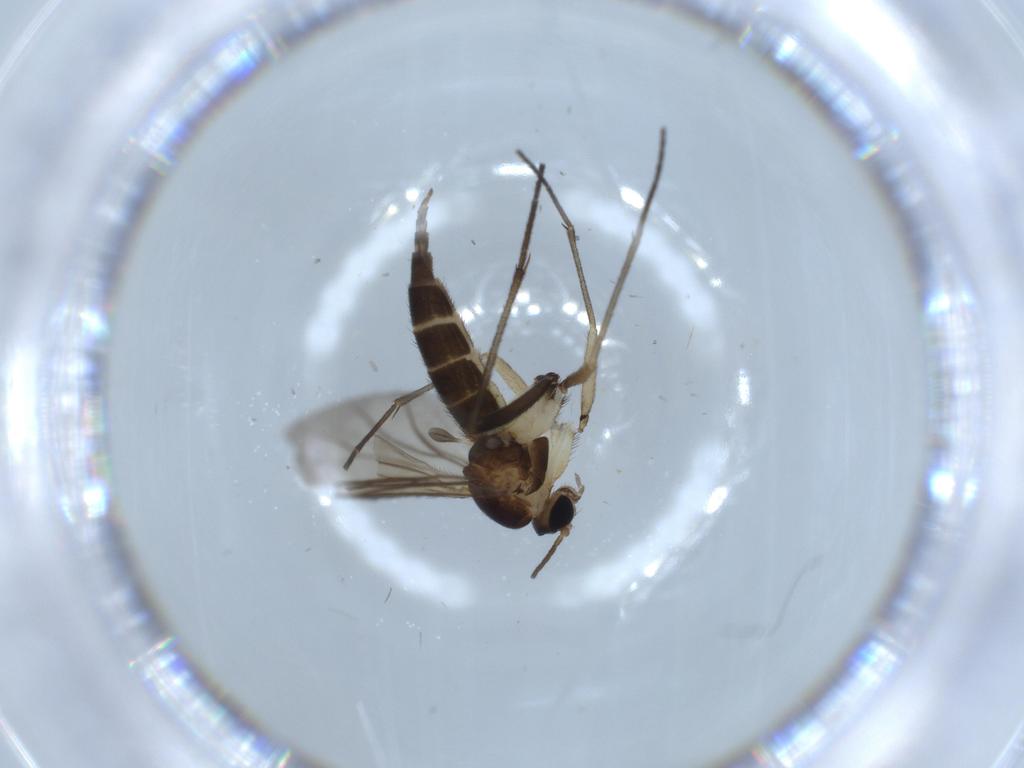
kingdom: Animalia
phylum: Arthropoda
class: Insecta
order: Diptera
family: Sciaridae
